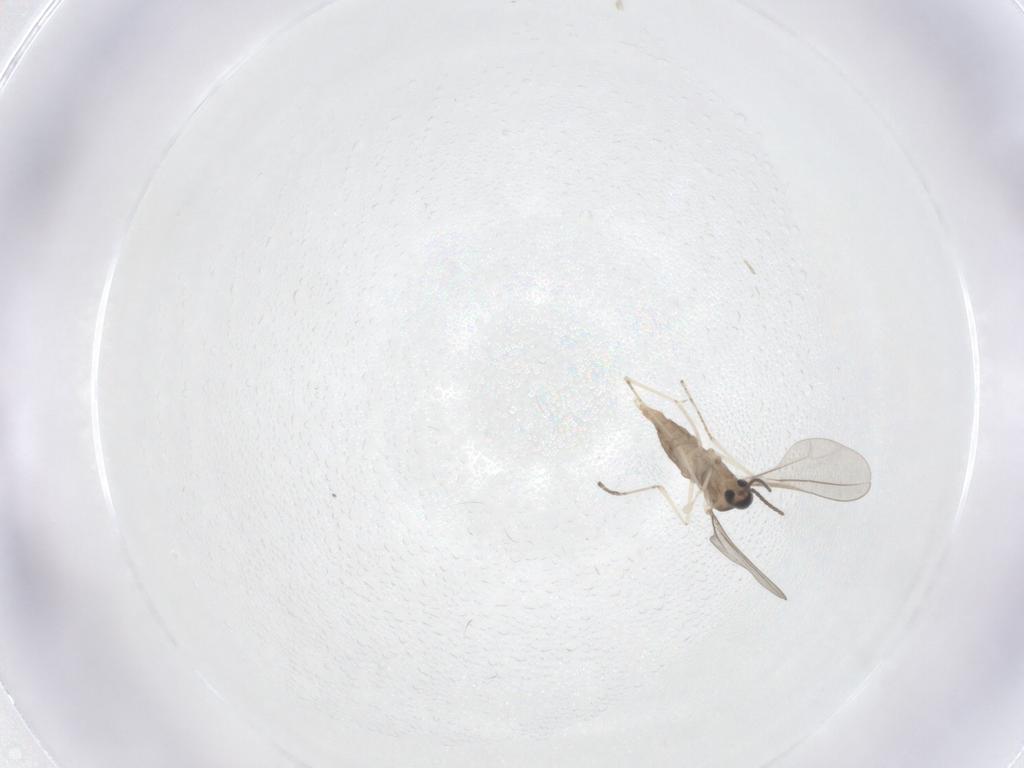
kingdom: Animalia
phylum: Arthropoda
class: Insecta
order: Diptera
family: Cecidomyiidae
